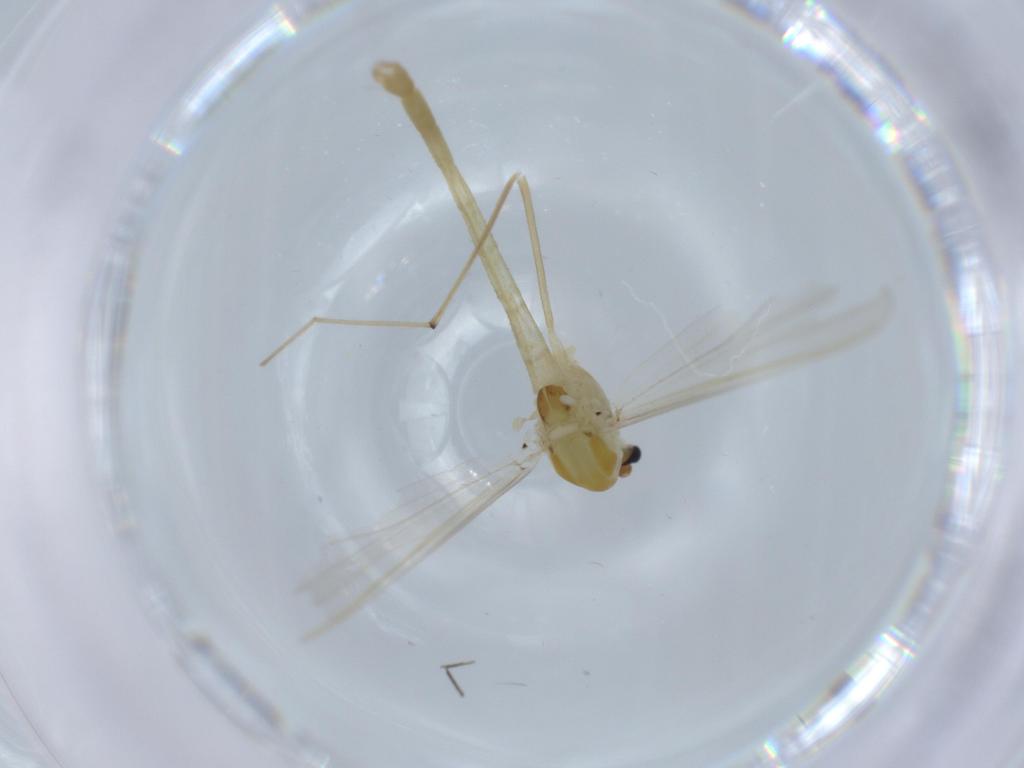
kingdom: Animalia
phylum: Arthropoda
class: Insecta
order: Diptera
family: Chironomidae
